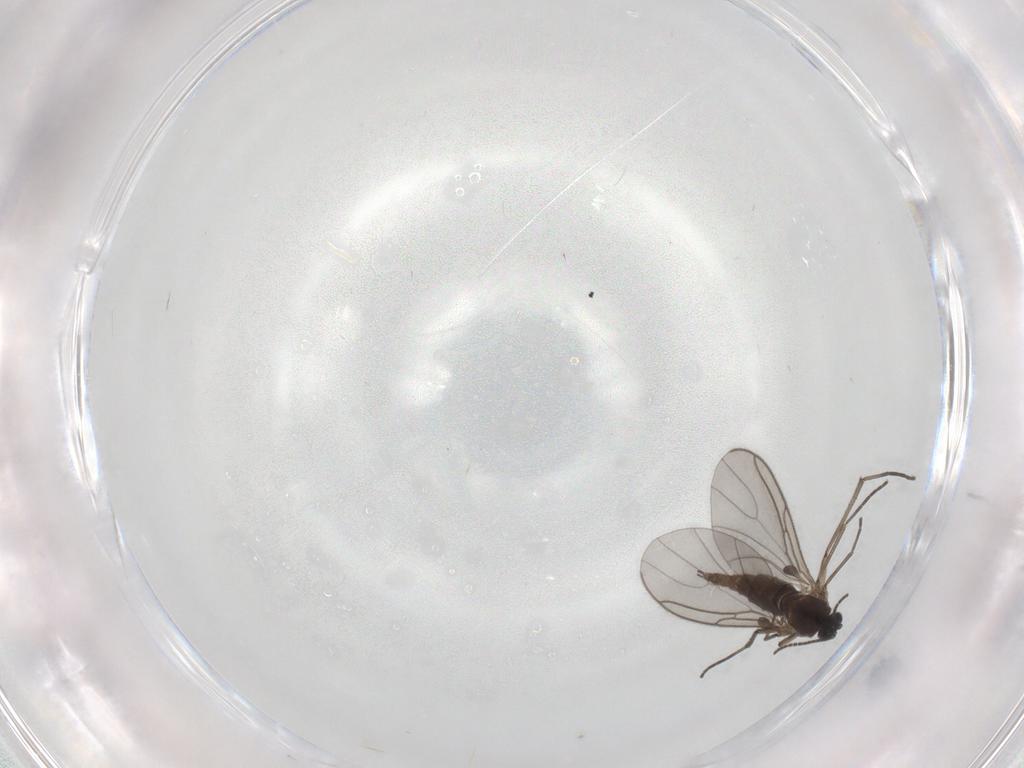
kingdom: Animalia
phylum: Arthropoda
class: Insecta
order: Diptera
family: Sciaridae
